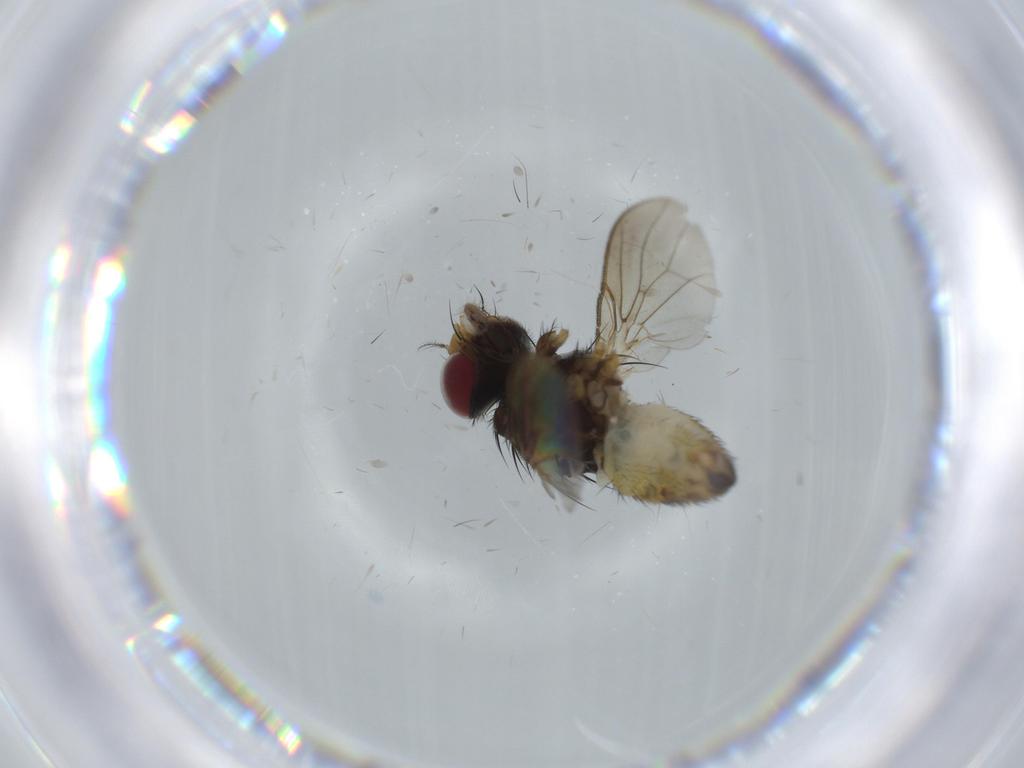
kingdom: Animalia
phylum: Arthropoda
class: Insecta
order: Diptera
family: Anthomyiidae
